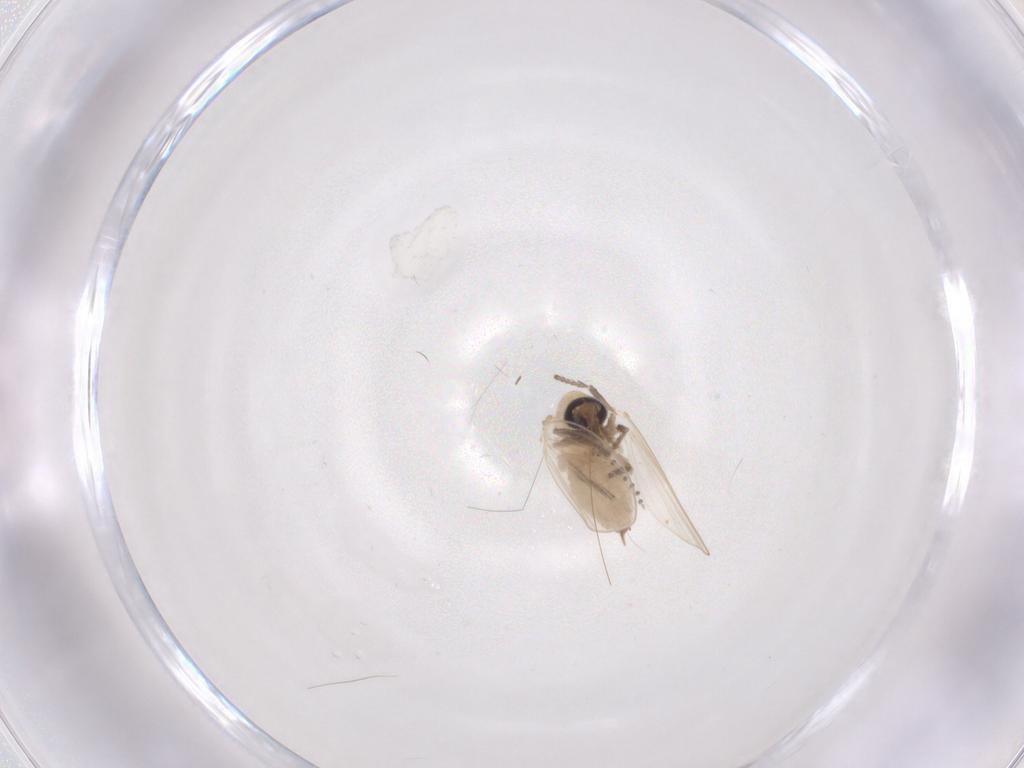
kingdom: Animalia
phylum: Arthropoda
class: Insecta
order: Diptera
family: Psychodidae
